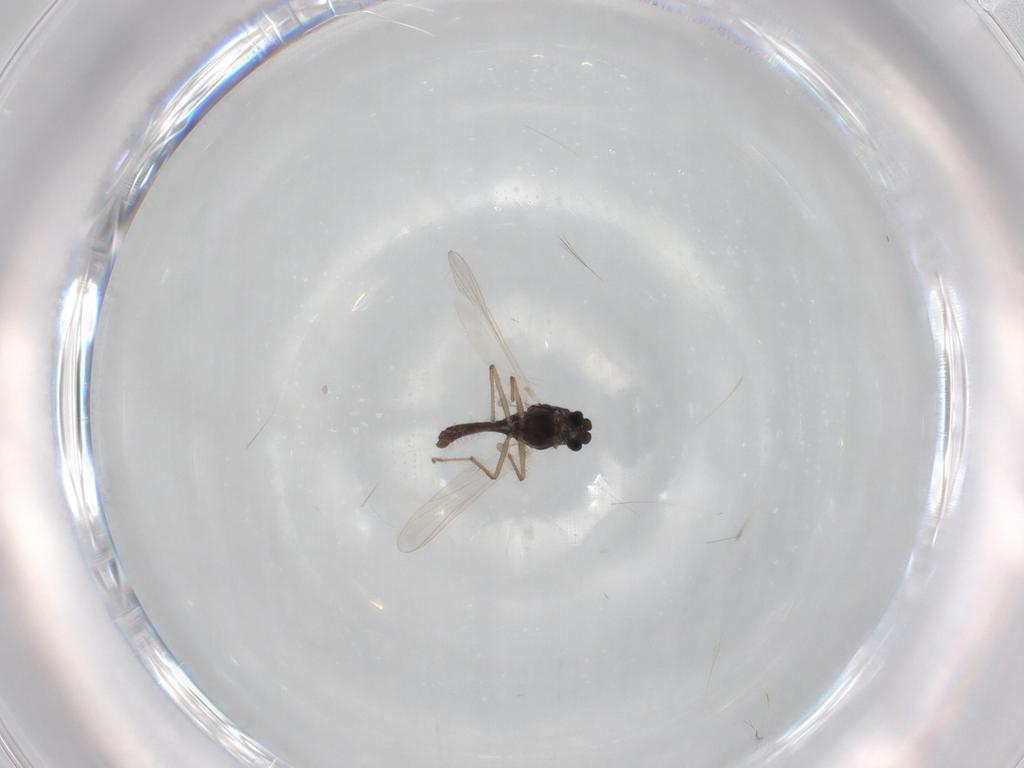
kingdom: Animalia
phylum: Arthropoda
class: Insecta
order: Diptera
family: Chironomidae
